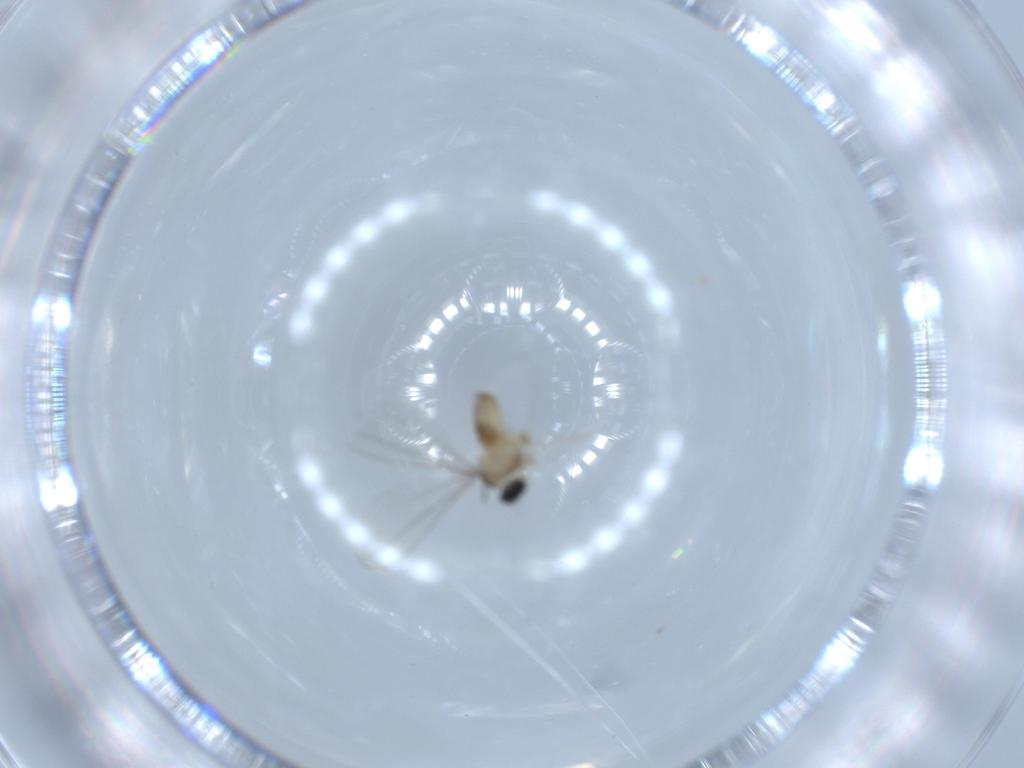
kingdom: Animalia
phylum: Arthropoda
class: Insecta
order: Diptera
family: Cecidomyiidae
